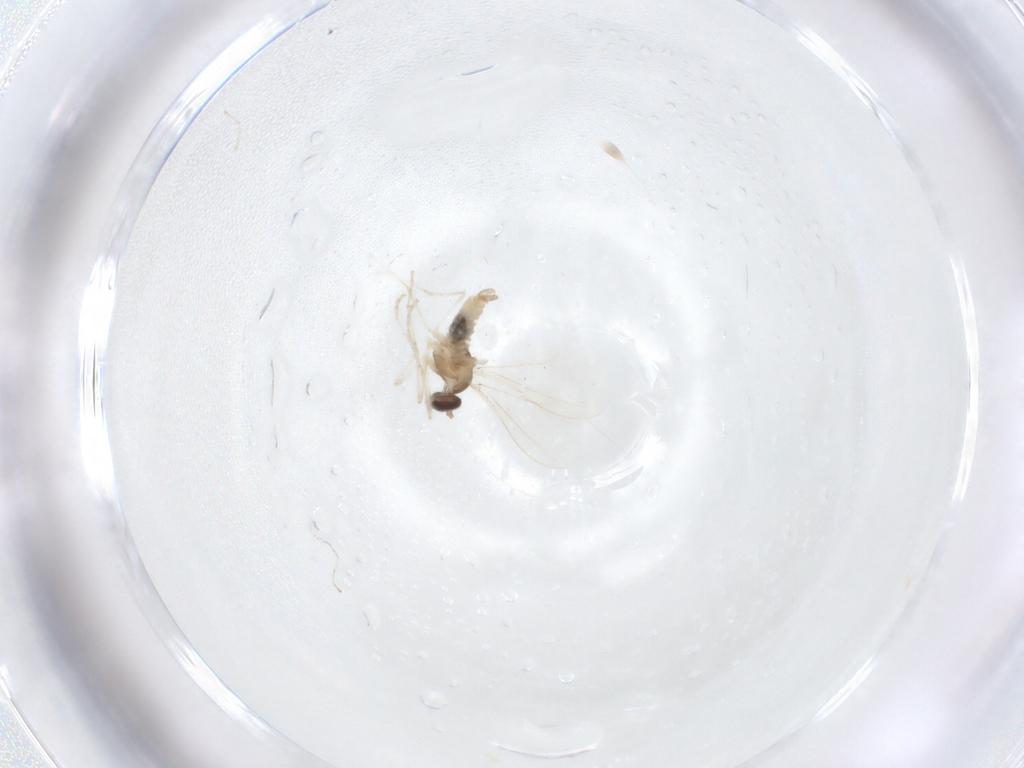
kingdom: Animalia
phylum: Arthropoda
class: Insecta
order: Diptera
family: Cecidomyiidae
